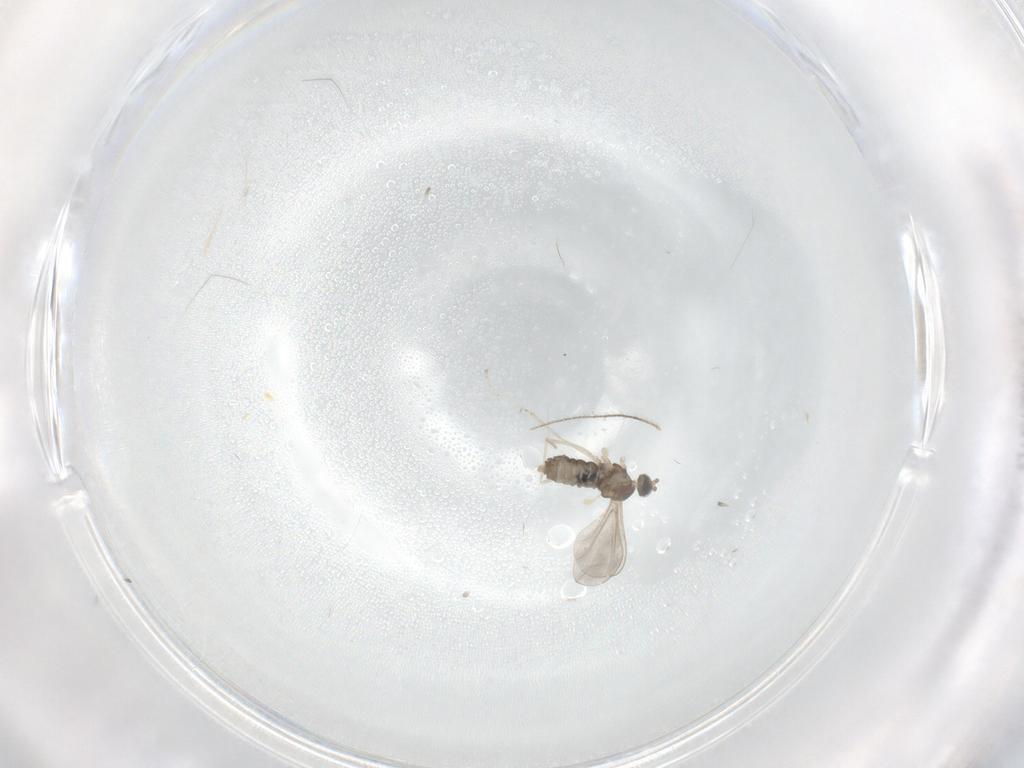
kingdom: Animalia
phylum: Arthropoda
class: Insecta
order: Diptera
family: Cecidomyiidae
